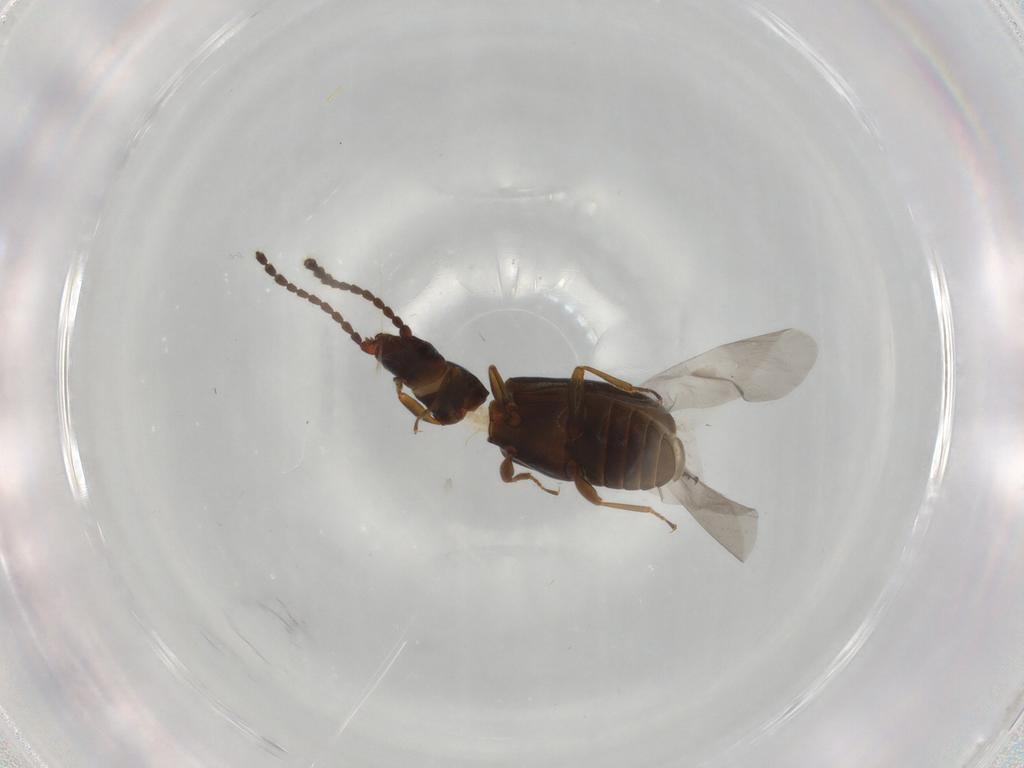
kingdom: Animalia
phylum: Arthropoda
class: Insecta
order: Coleoptera
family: Laemophloeidae
